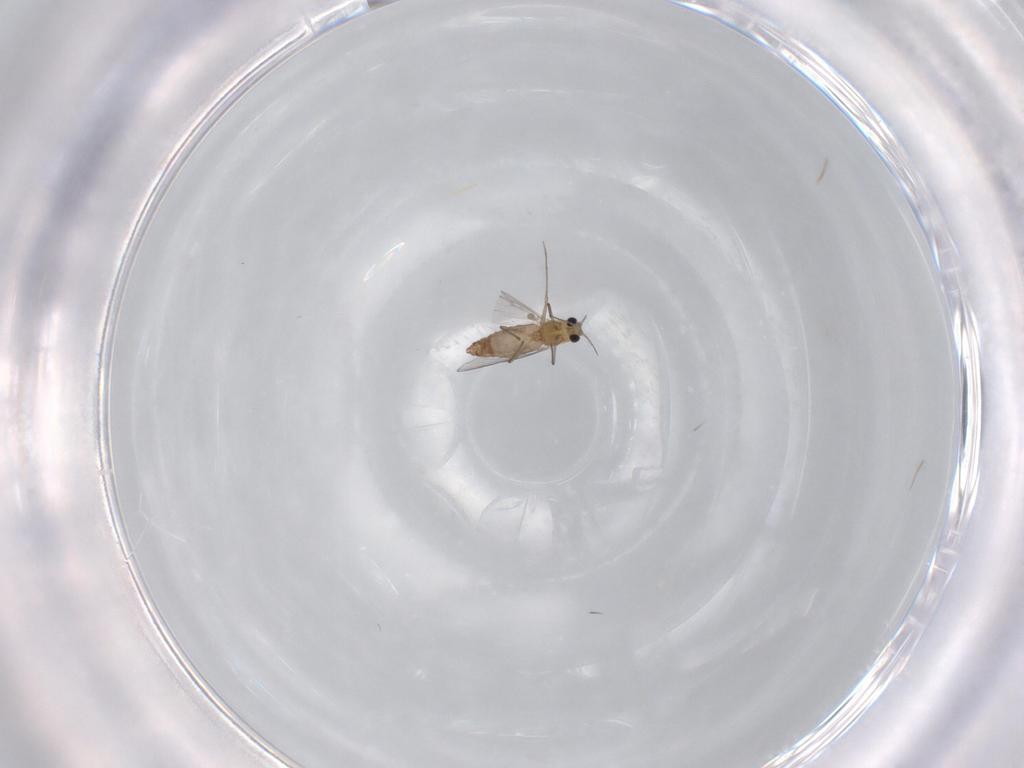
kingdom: Animalia
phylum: Arthropoda
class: Insecta
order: Diptera
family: Chironomidae
